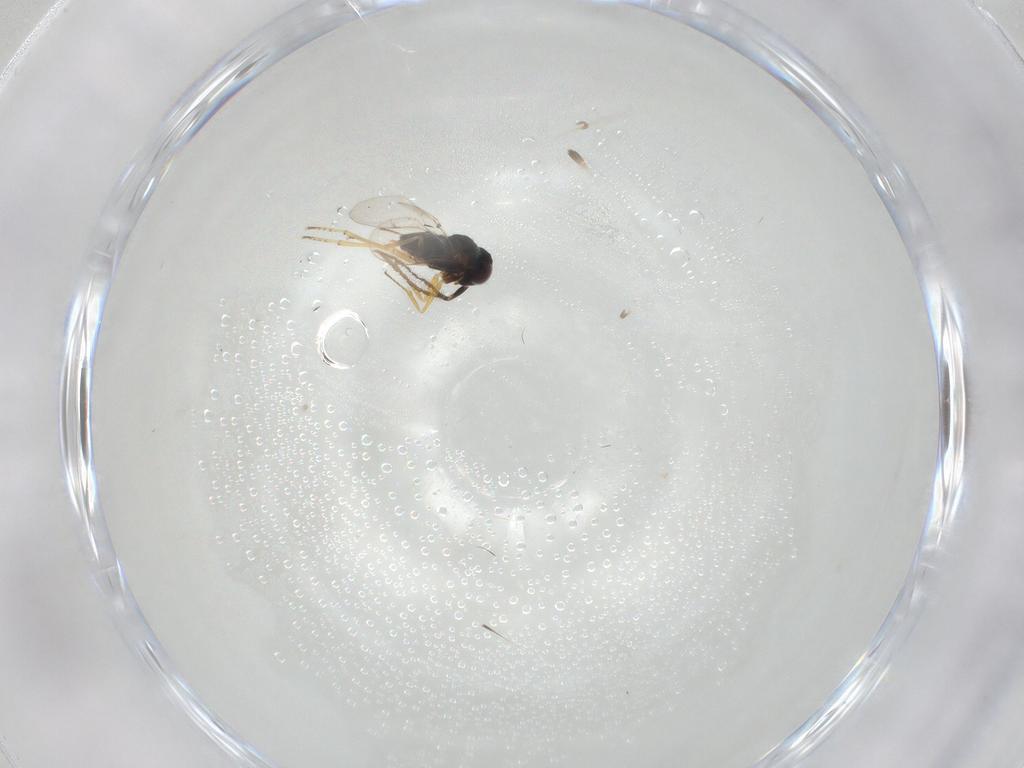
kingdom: Animalia
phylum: Arthropoda
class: Insecta
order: Hymenoptera
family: Encyrtidae
